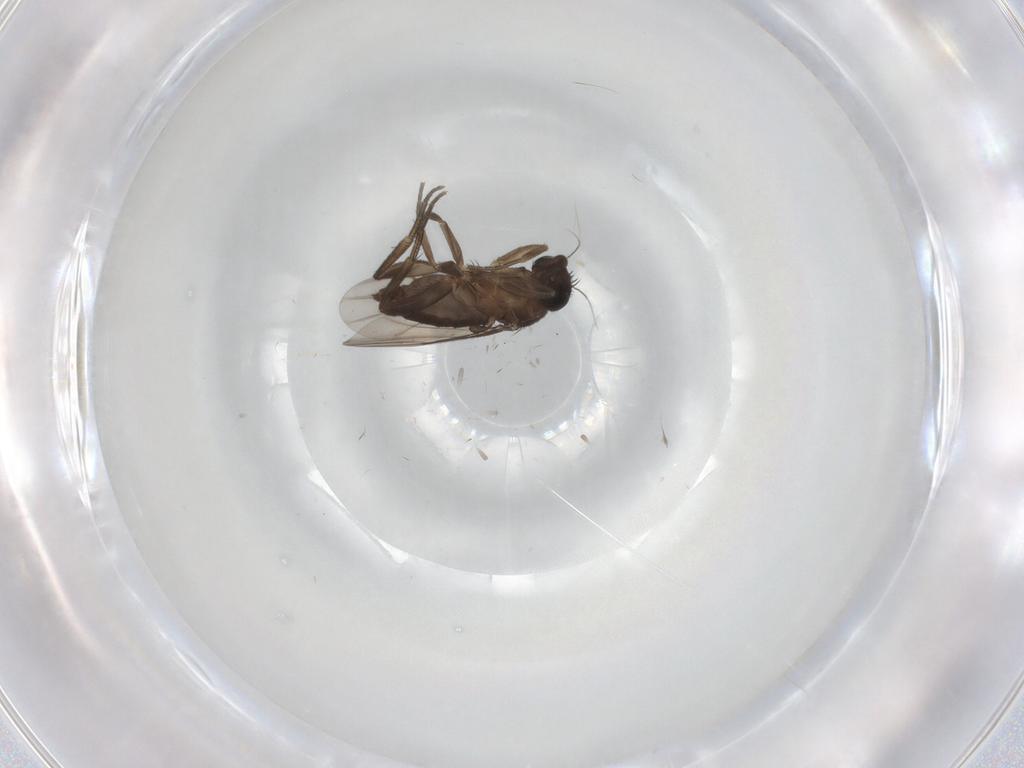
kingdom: Animalia
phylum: Arthropoda
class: Insecta
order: Diptera
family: Phoridae
